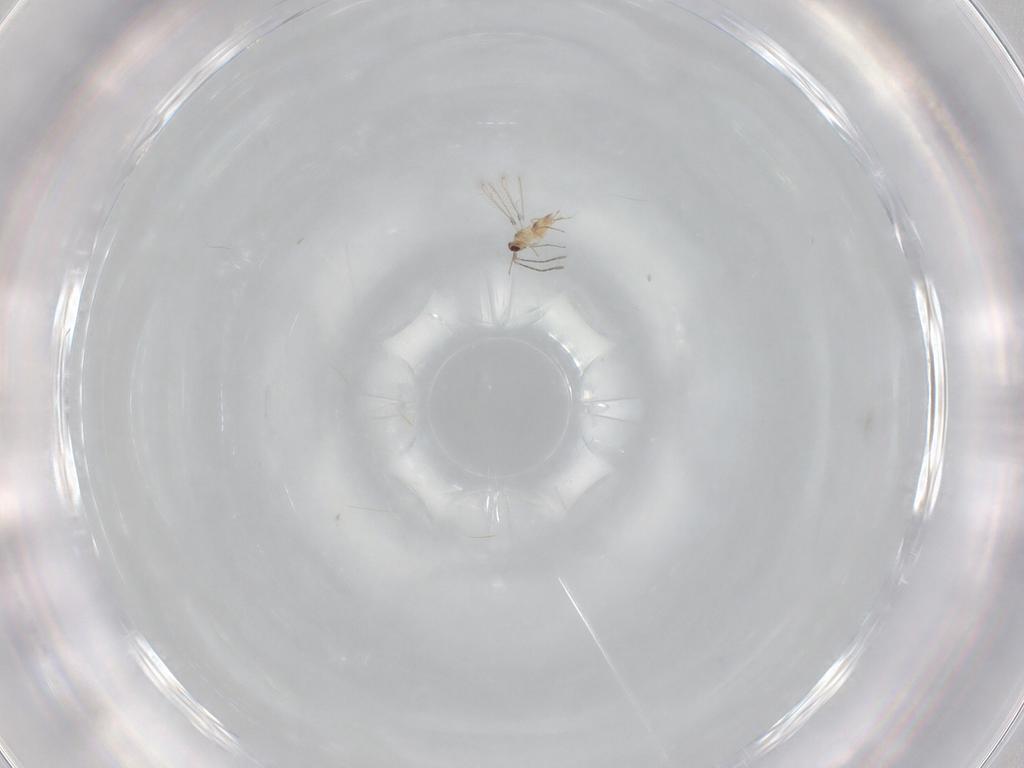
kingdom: Animalia
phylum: Arthropoda
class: Insecta
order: Hymenoptera
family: Mymaridae
